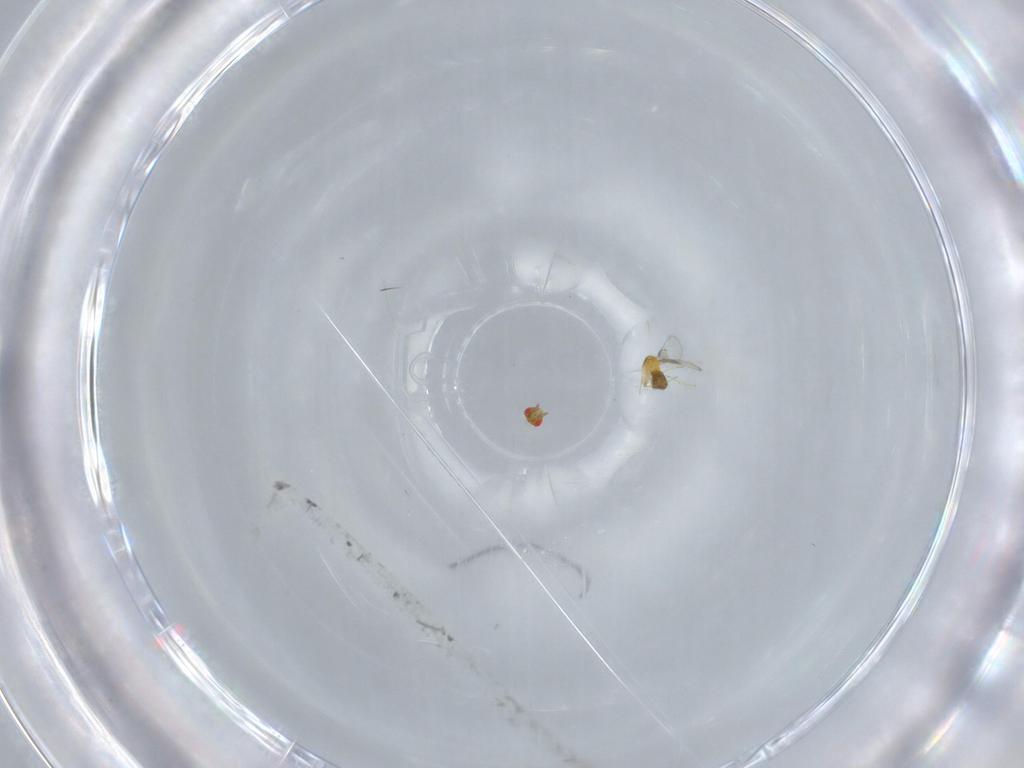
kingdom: Animalia
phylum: Arthropoda
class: Insecta
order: Hymenoptera
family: Trichogrammatidae
